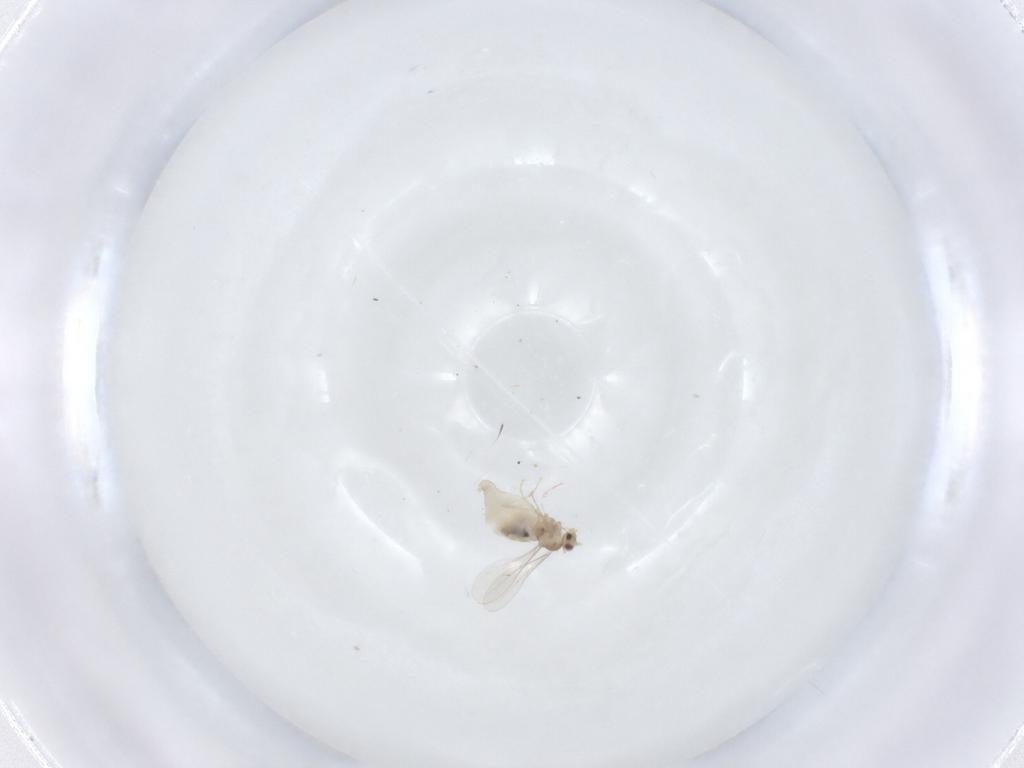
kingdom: Animalia
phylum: Arthropoda
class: Insecta
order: Diptera
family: Cecidomyiidae
